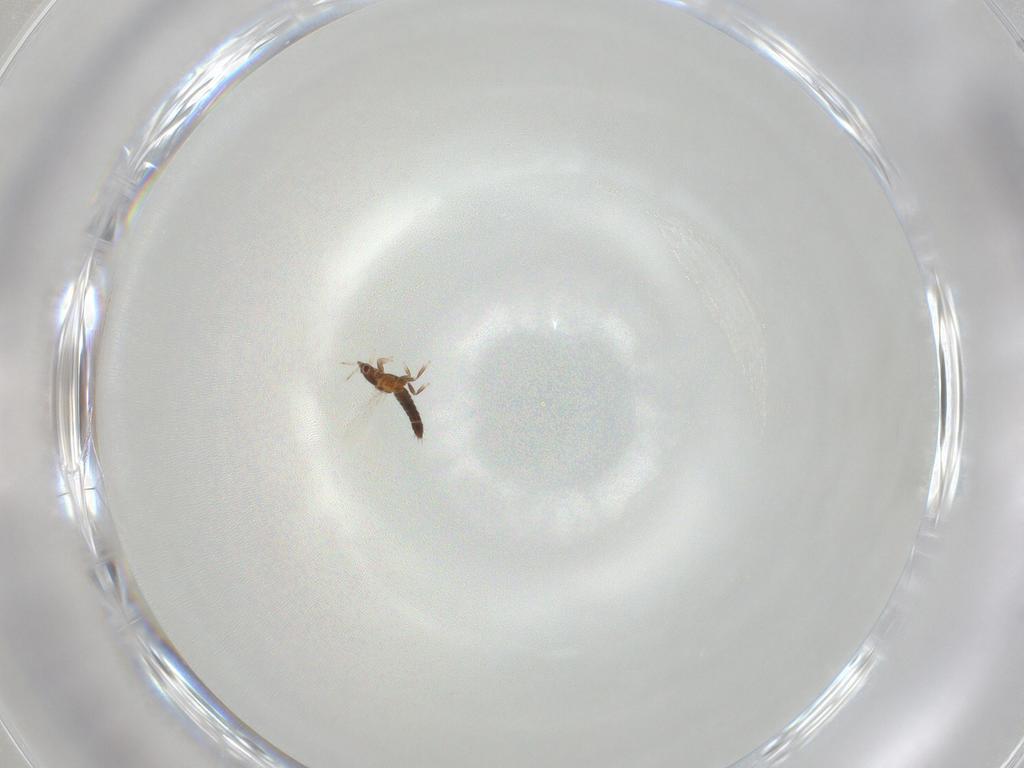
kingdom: Animalia
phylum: Arthropoda
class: Insecta
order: Thysanoptera
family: Thripidae
